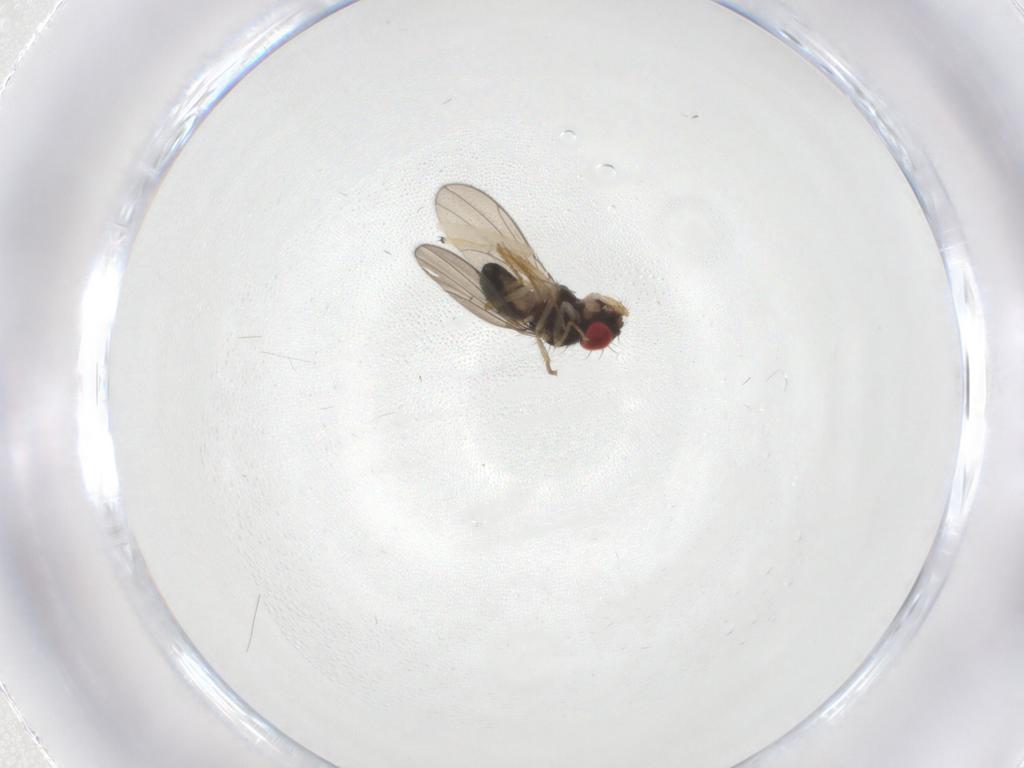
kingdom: Animalia
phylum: Arthropoda
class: Insecta
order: Diptera
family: Drosophilidae
